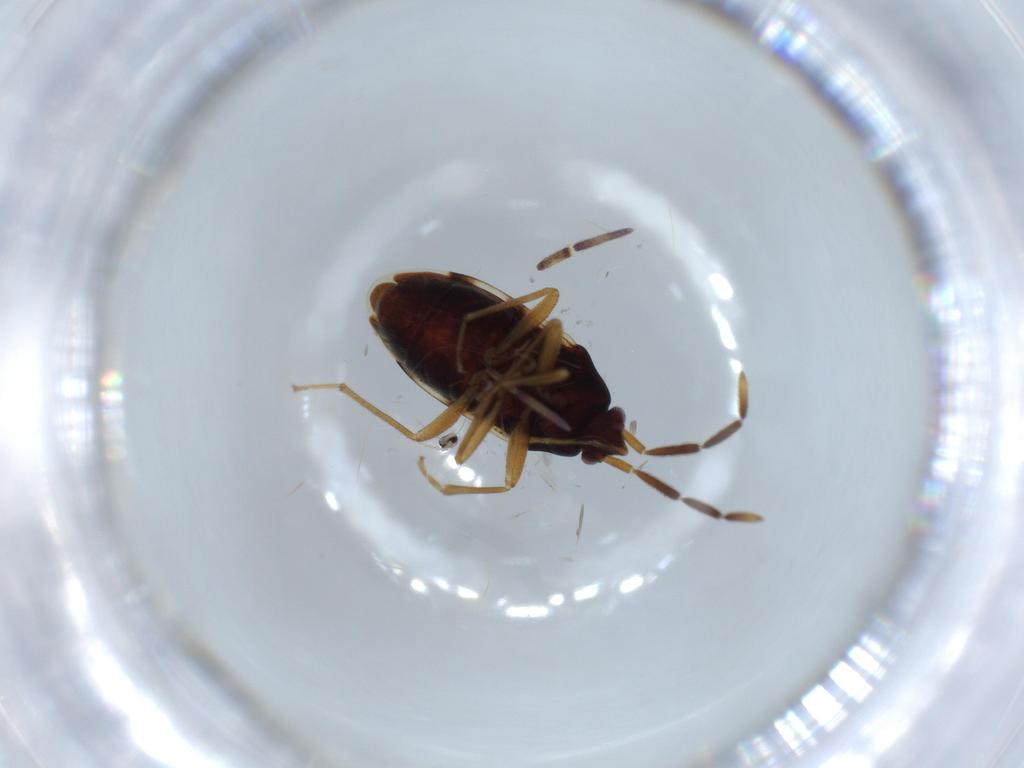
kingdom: Animalia
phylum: Arthropoda
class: Insecta
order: Hemiptera
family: Rhyparochromidae
